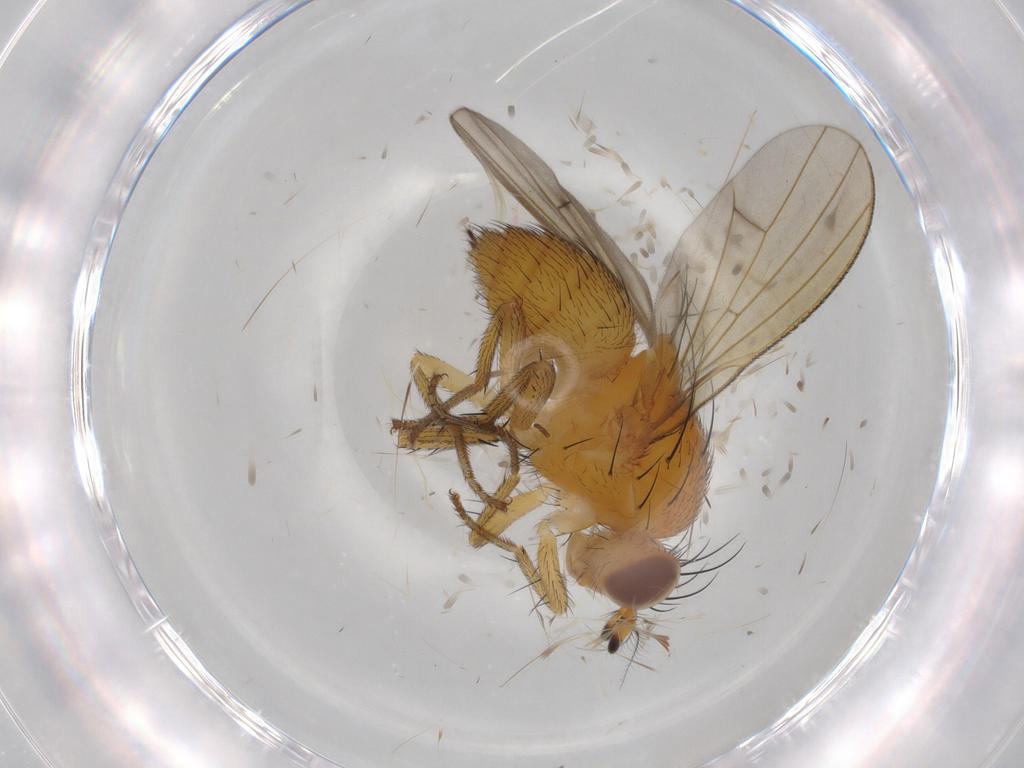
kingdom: Animalia
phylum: Arthropoda
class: Insecta
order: Diptera
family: Lauxaniidae
